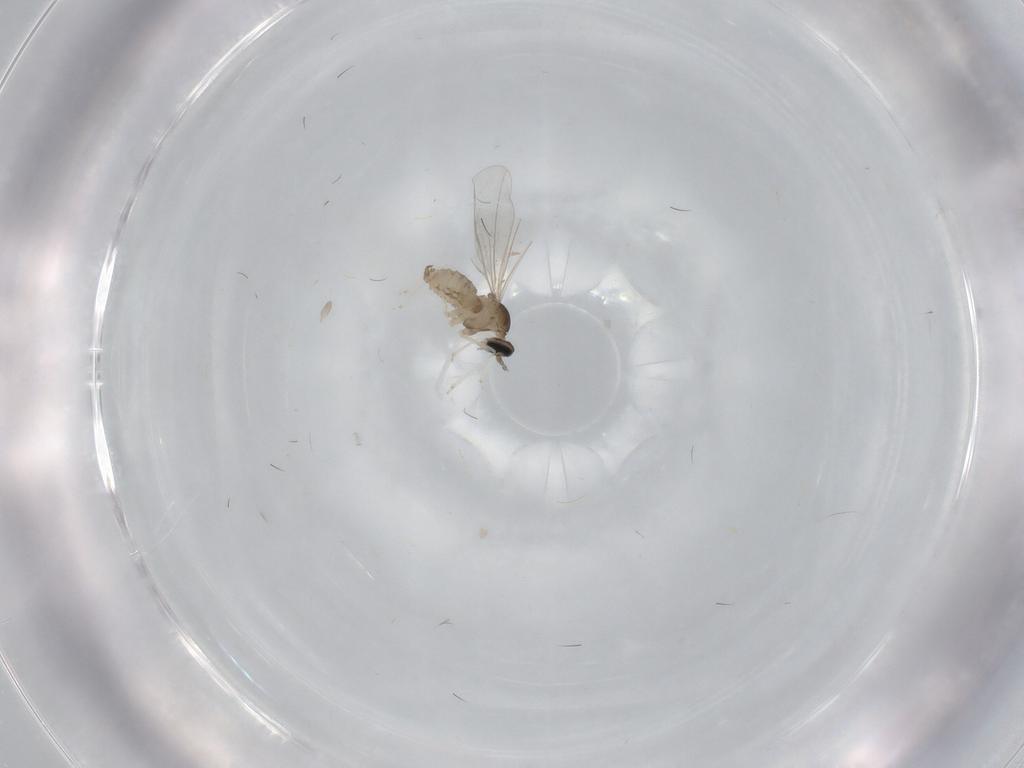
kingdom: Animalia
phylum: Arthropoda
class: Insecta
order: Diptera
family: Cecidomyiidae
